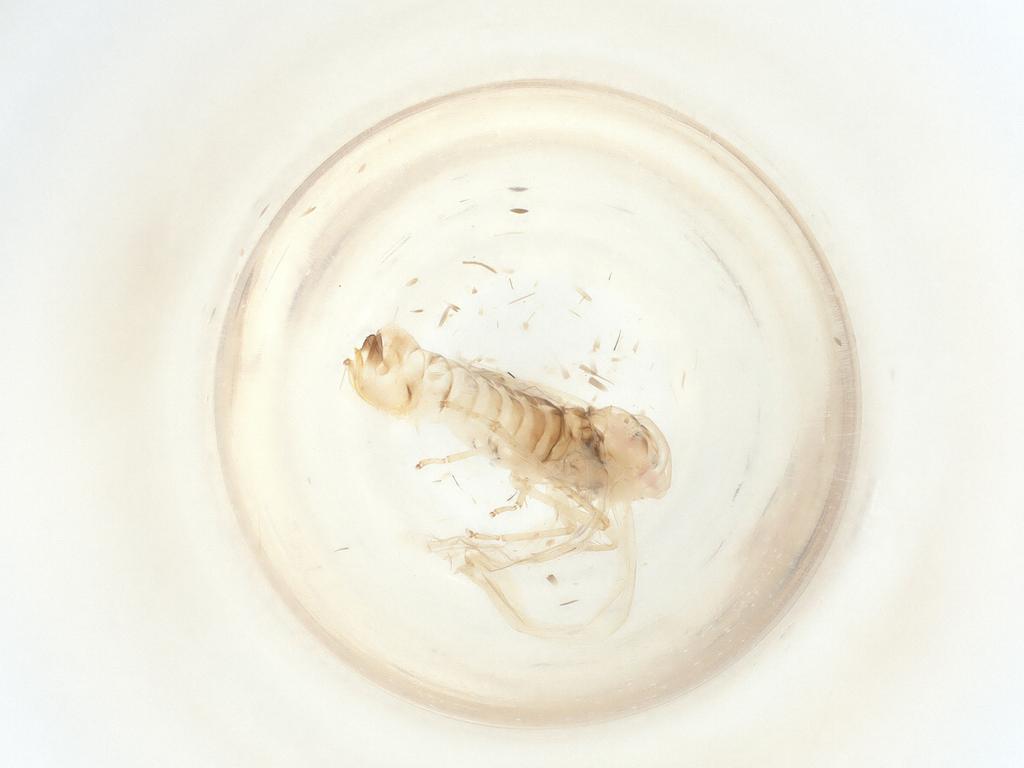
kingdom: Animalia
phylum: Arthropoda
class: Insecta
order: Hemiptera
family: Cicadellidae
